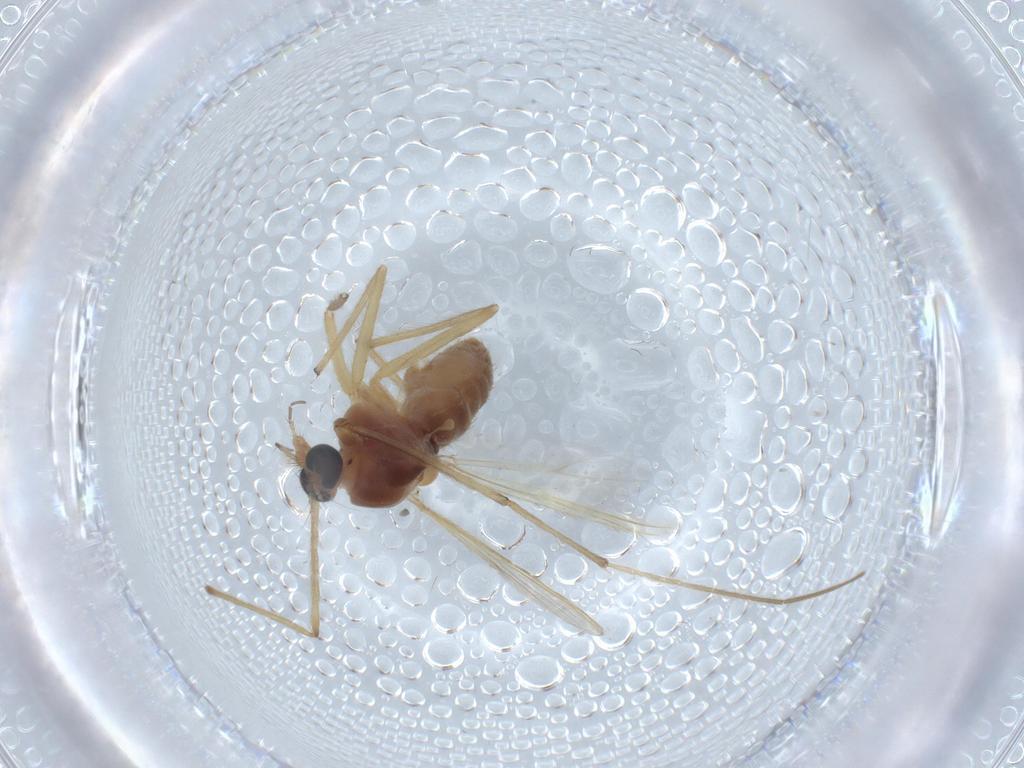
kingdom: Animalia
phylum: Arthropoda
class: Insecta
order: Diptera
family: Chironomidae
